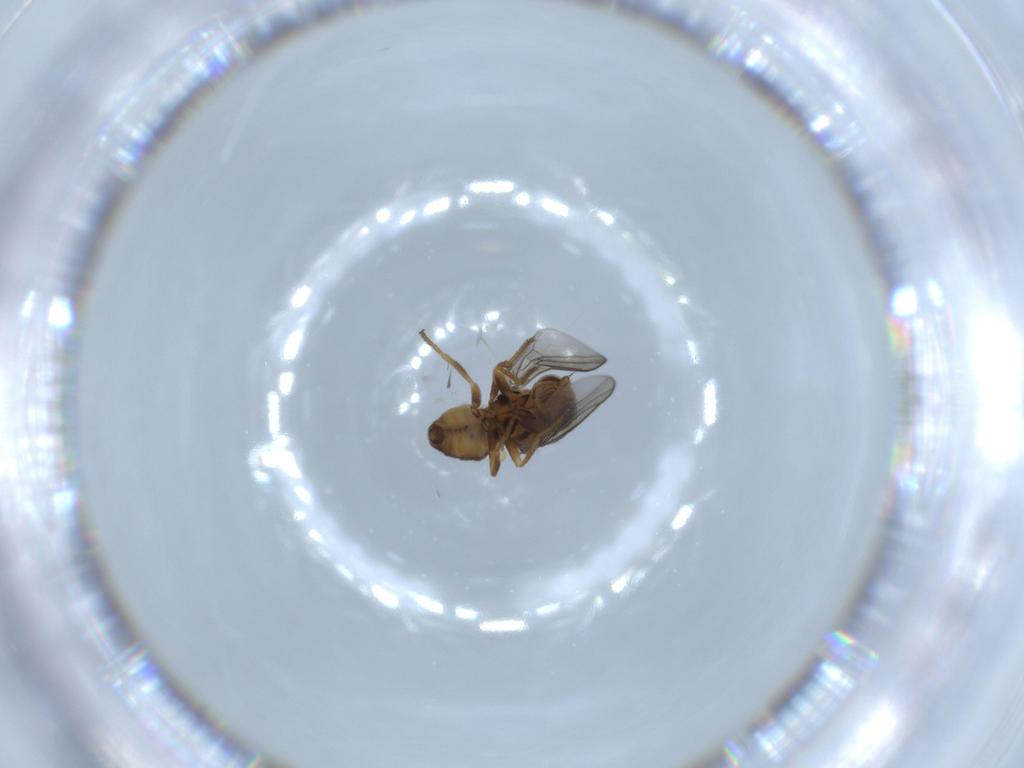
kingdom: Animalia
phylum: Arthropoda
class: Insecta
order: Diptera
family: Chloropidae
